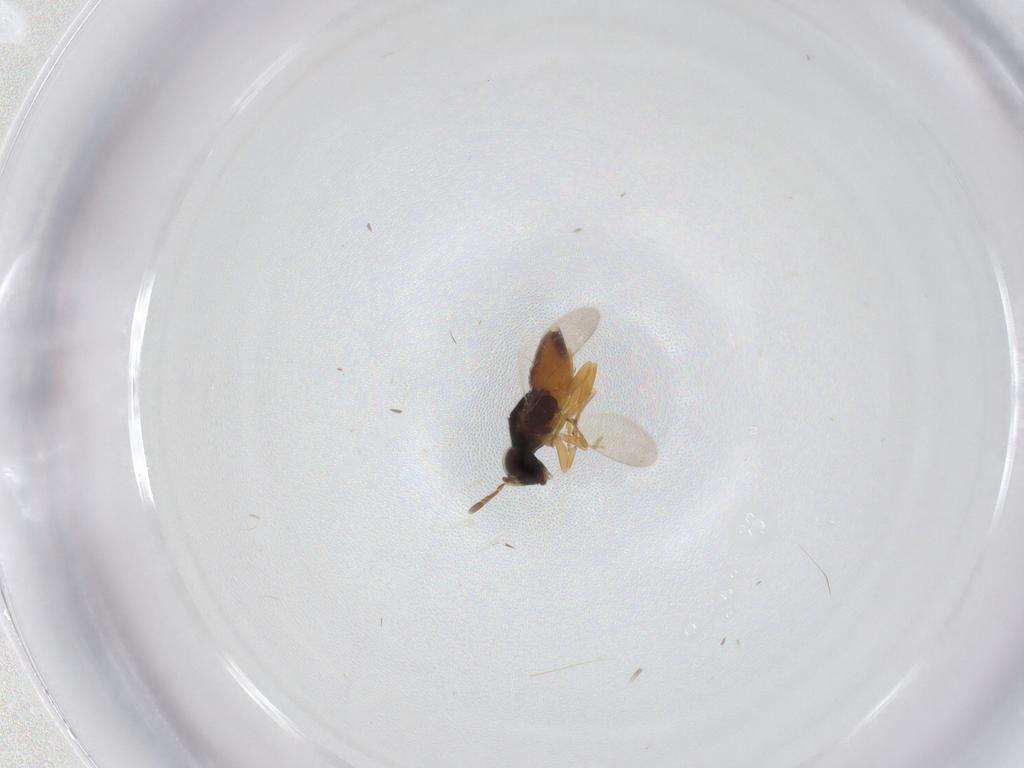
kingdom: Animalia
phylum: Arthropoda
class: Insecta
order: Hymenoptera
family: Encyrtidae
